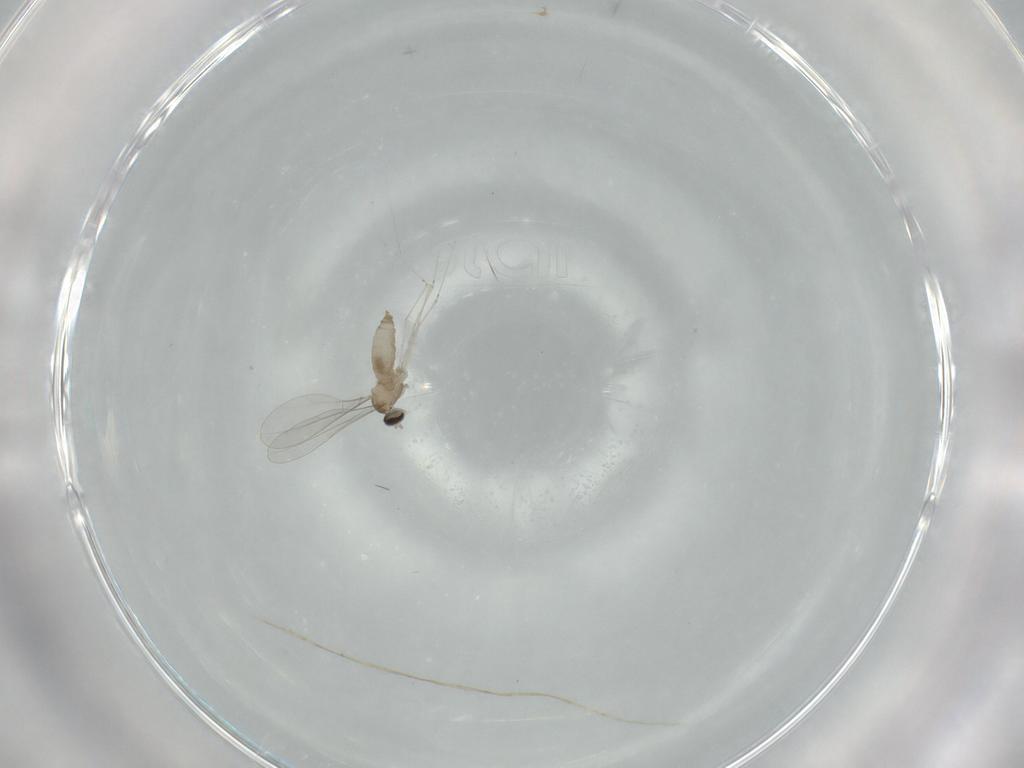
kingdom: Animalia
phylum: Arthropoda
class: Insecta
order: Diptera
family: Cecidomyiidae
